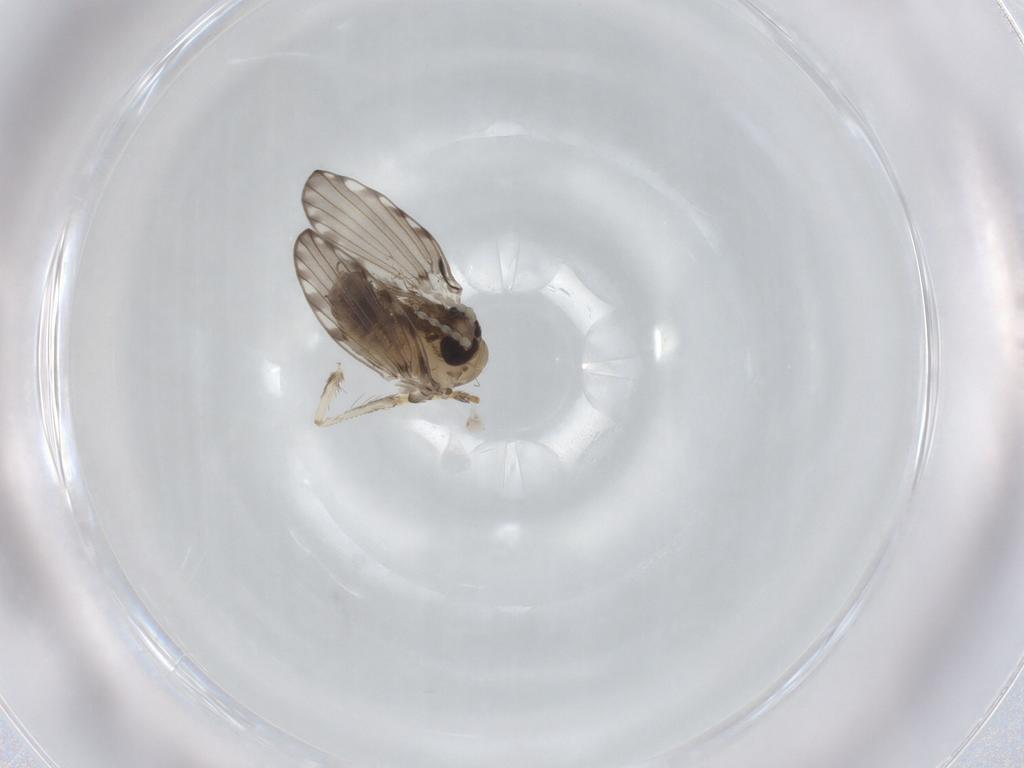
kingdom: Animalia
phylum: Arthropoda
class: Insecta
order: Diptera
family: Psychodidae
